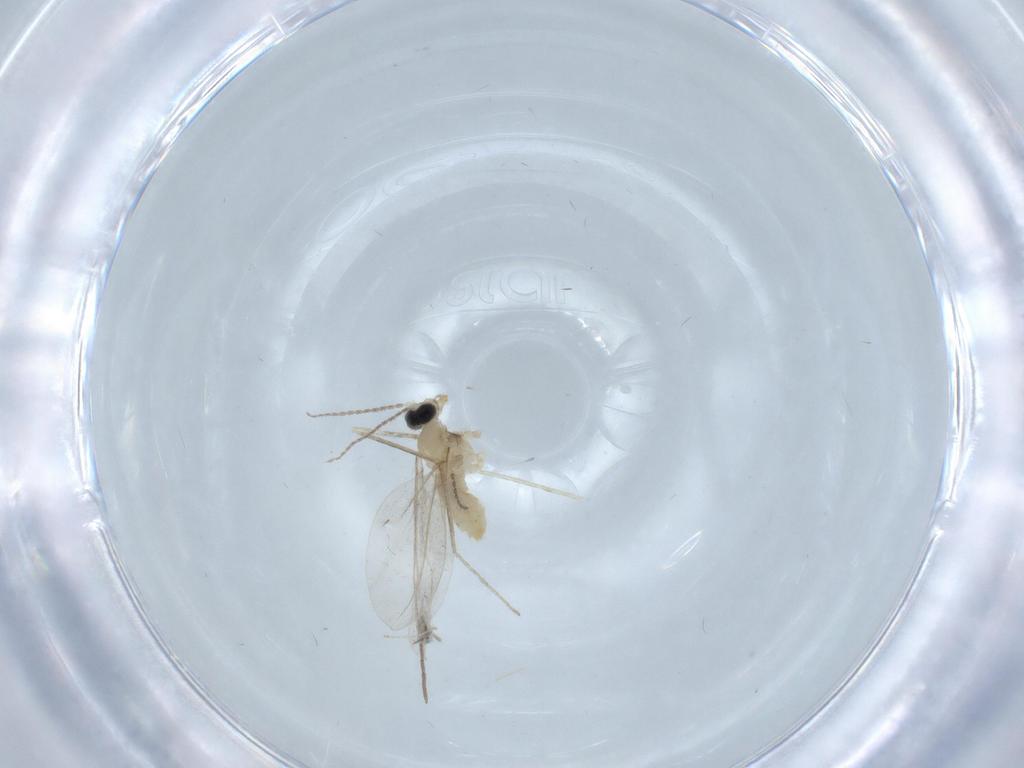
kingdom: Animalia
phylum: Arthropoda
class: Insecta
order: Diptera
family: Cecidomyiidae
